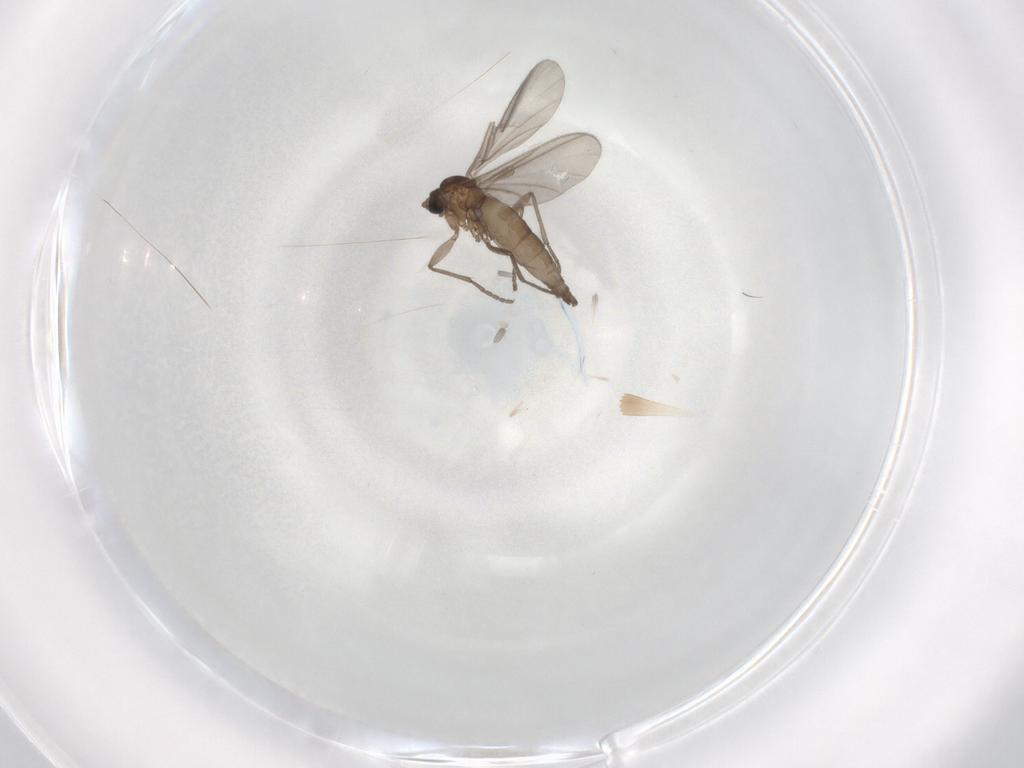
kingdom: Animalia
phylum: Arthropoda
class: Insecta
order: Diptera
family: Sciaridae
